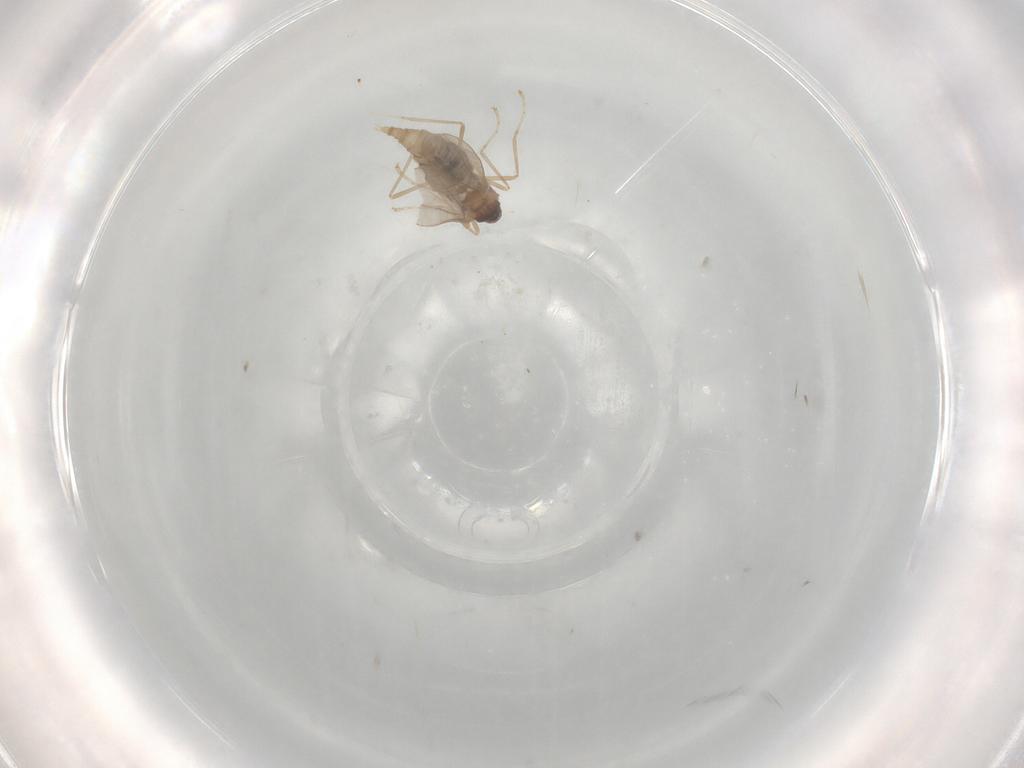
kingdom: Animalia
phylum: Arthropoda
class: Insecta
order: Diptera
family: Cecidomyiidae
